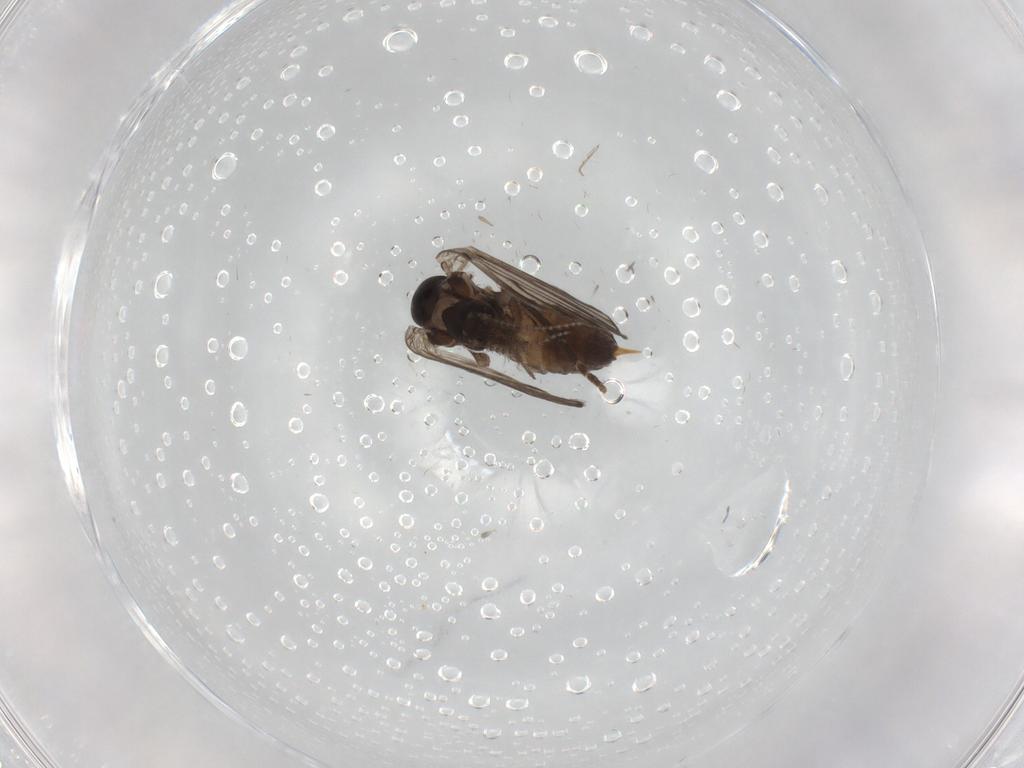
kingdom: Animalia
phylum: Arthropoda
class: Insecta
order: Diptera
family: Psychodidae
